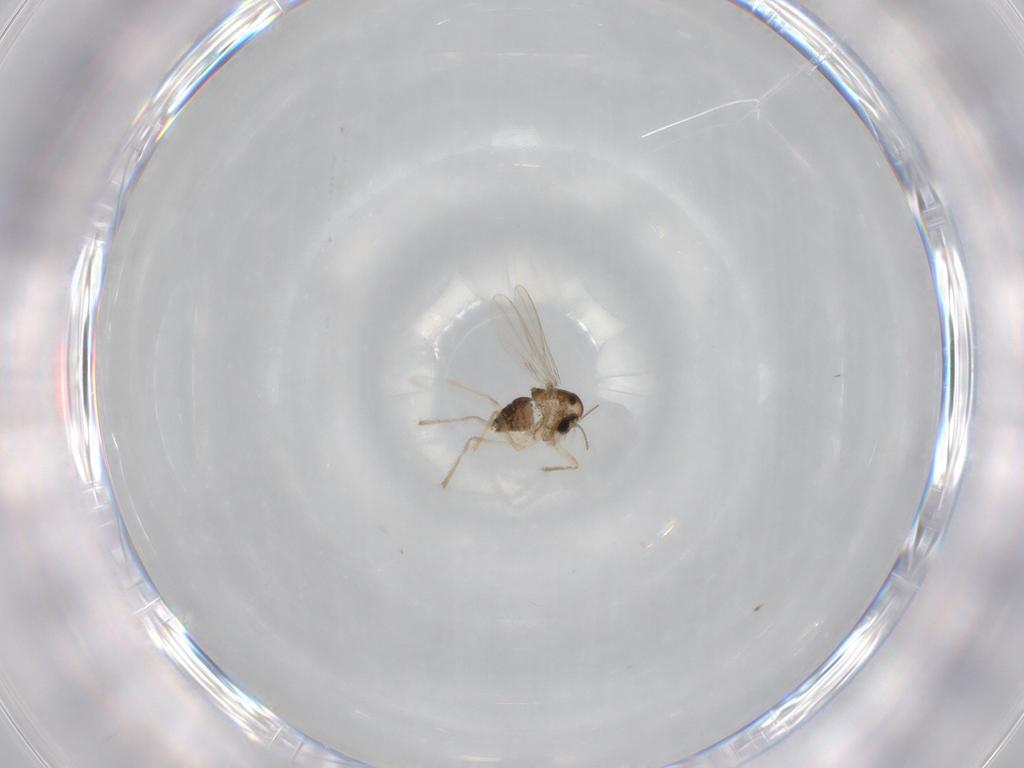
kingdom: Animalia
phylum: Arthropoda
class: Insecta
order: Diptera
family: Chironomidae
